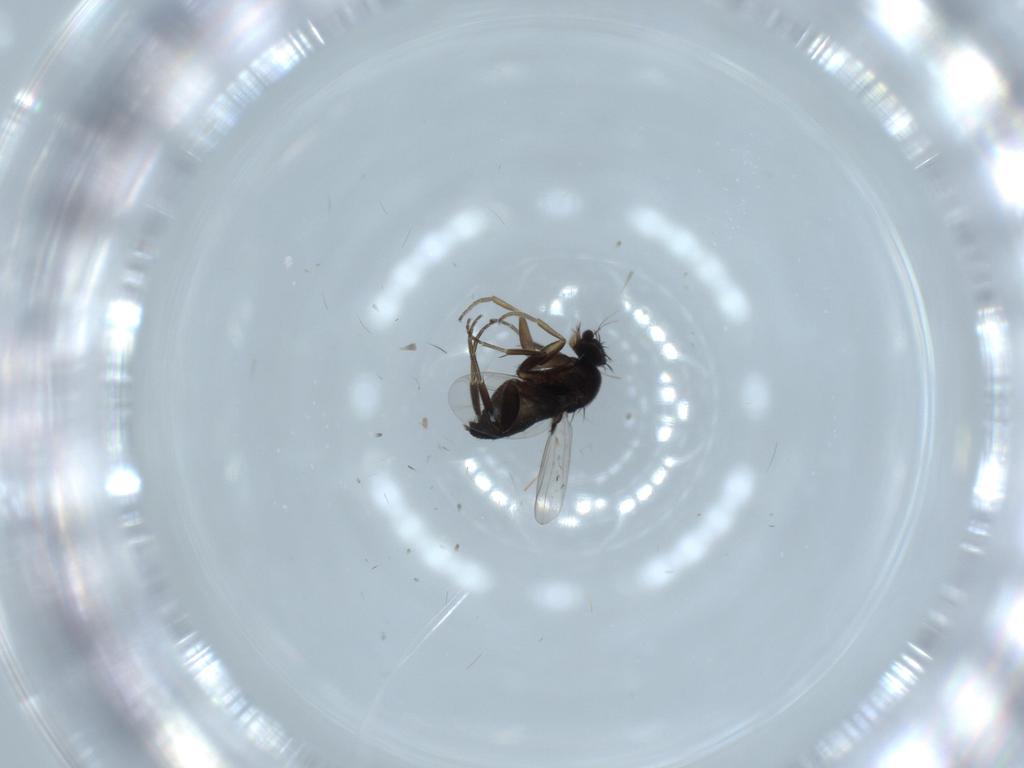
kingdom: Animalia
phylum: Arthropoda
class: Insecta
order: Diptera
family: Phoridae
